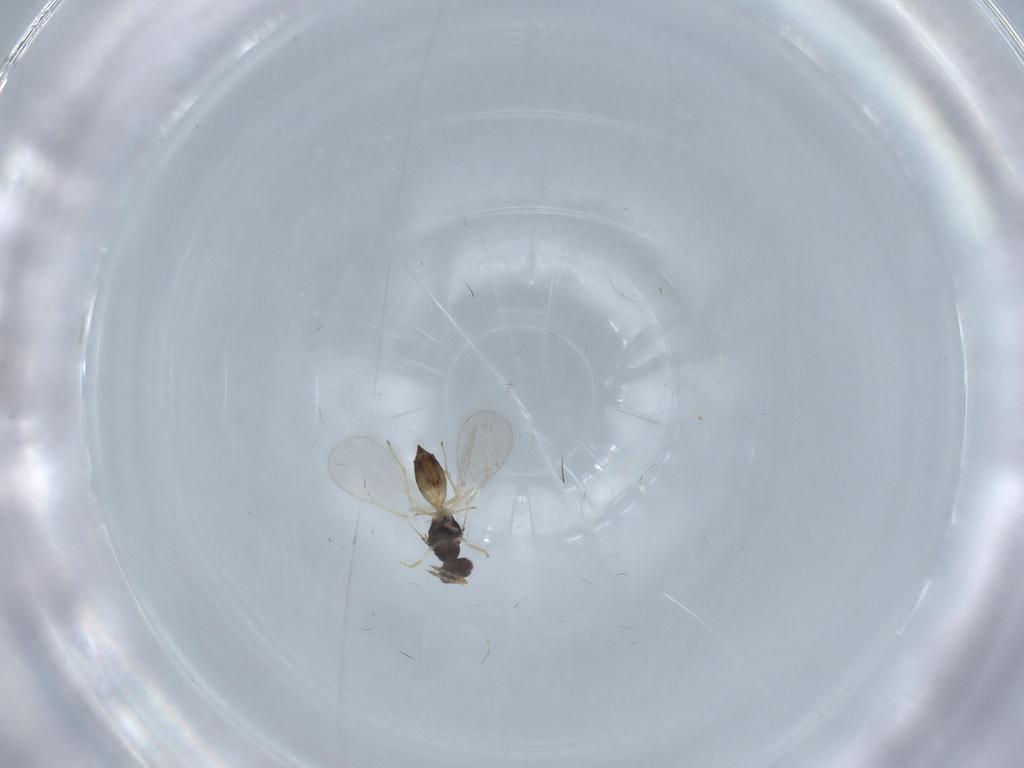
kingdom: Animalia
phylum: Arthropoda
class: Insecta
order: Hymenoptera
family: Eulophidae
